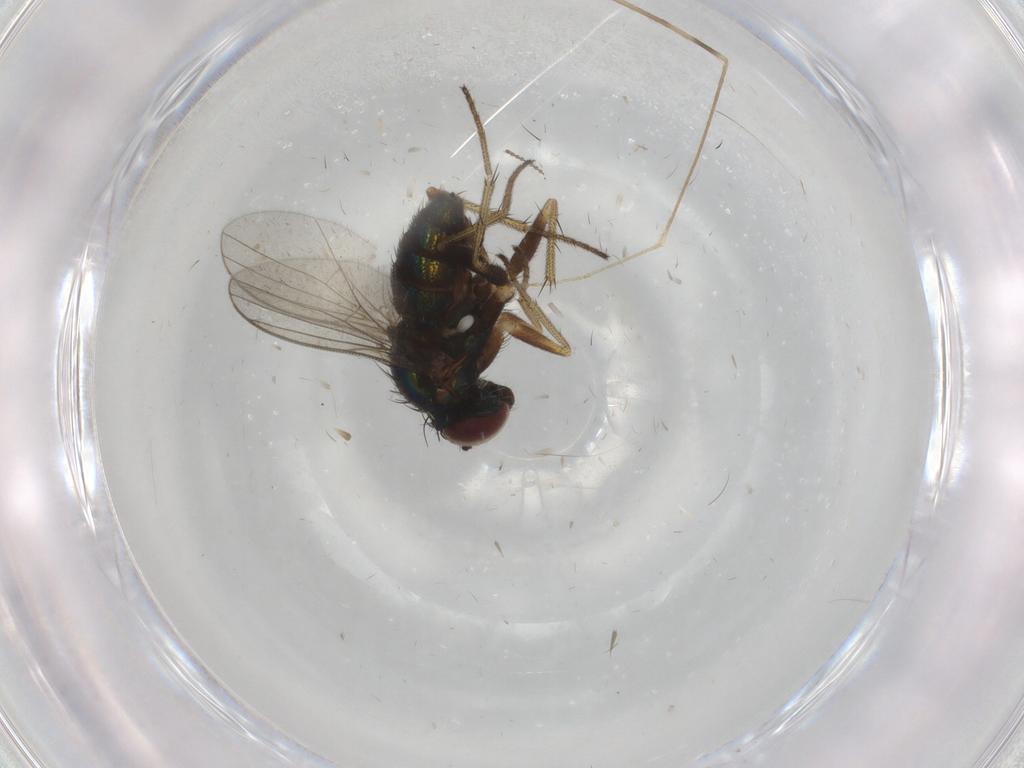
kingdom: Animalia
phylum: Arthropoda
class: Insecta
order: Diptera
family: Limoniidae
